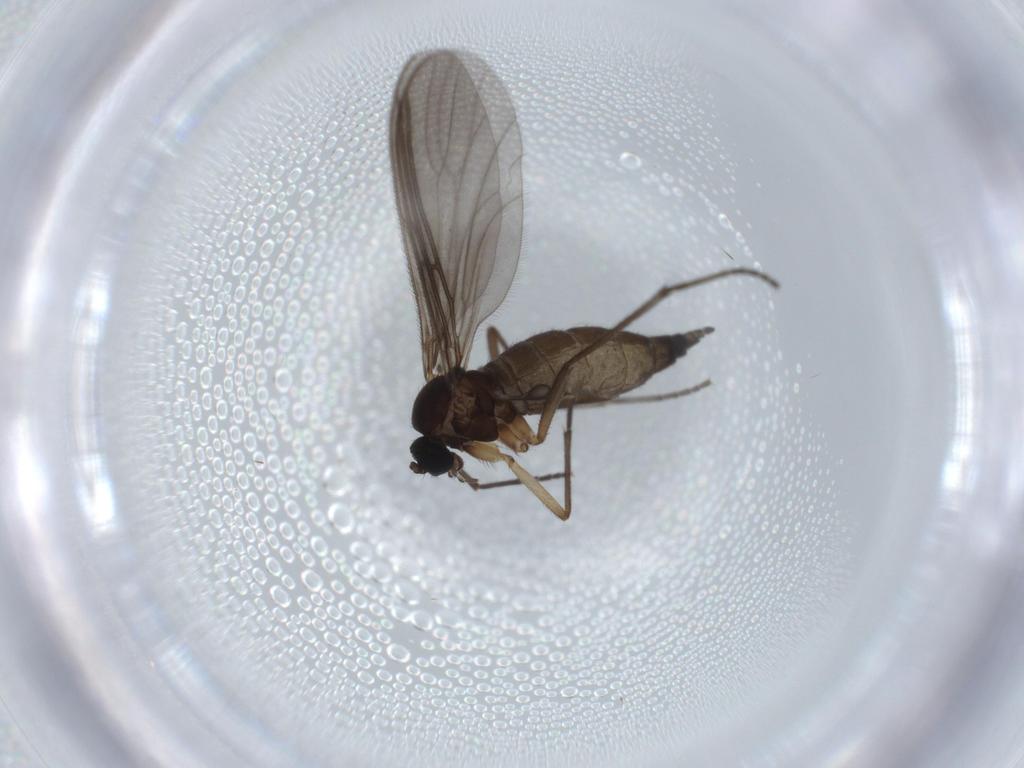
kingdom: Animalia
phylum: Arthropoda
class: Insecta
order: Diptera
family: Sciaridae
